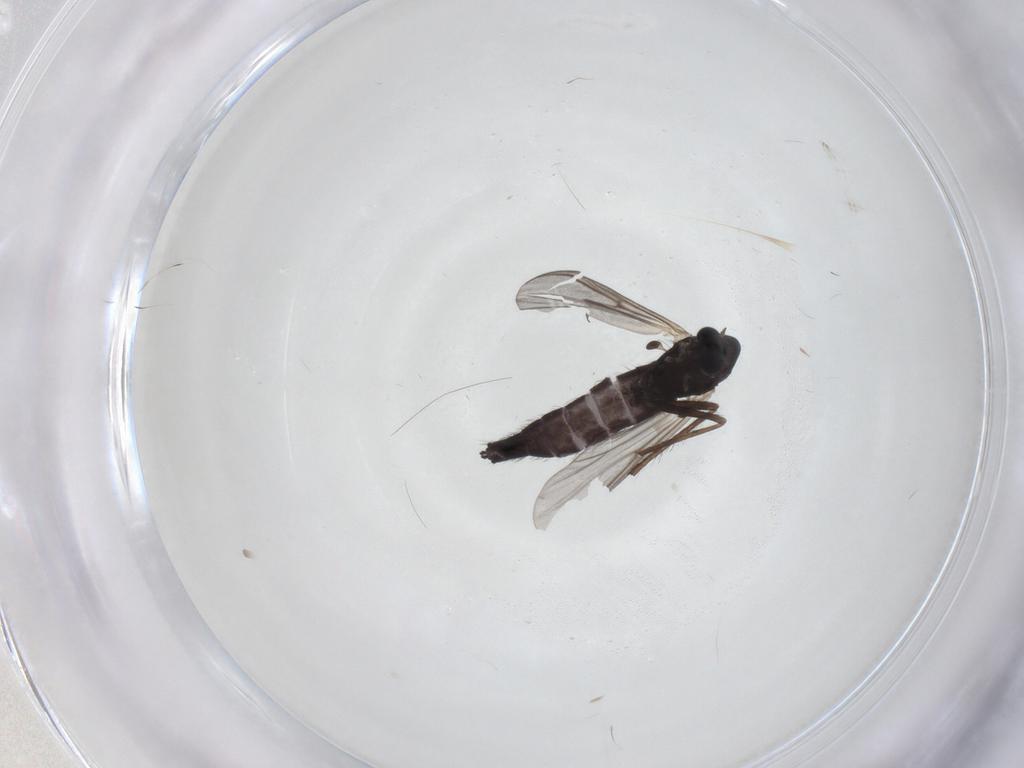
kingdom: Animalia
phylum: Arthropoda
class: Insecta
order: Diptera
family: Chironomidae
